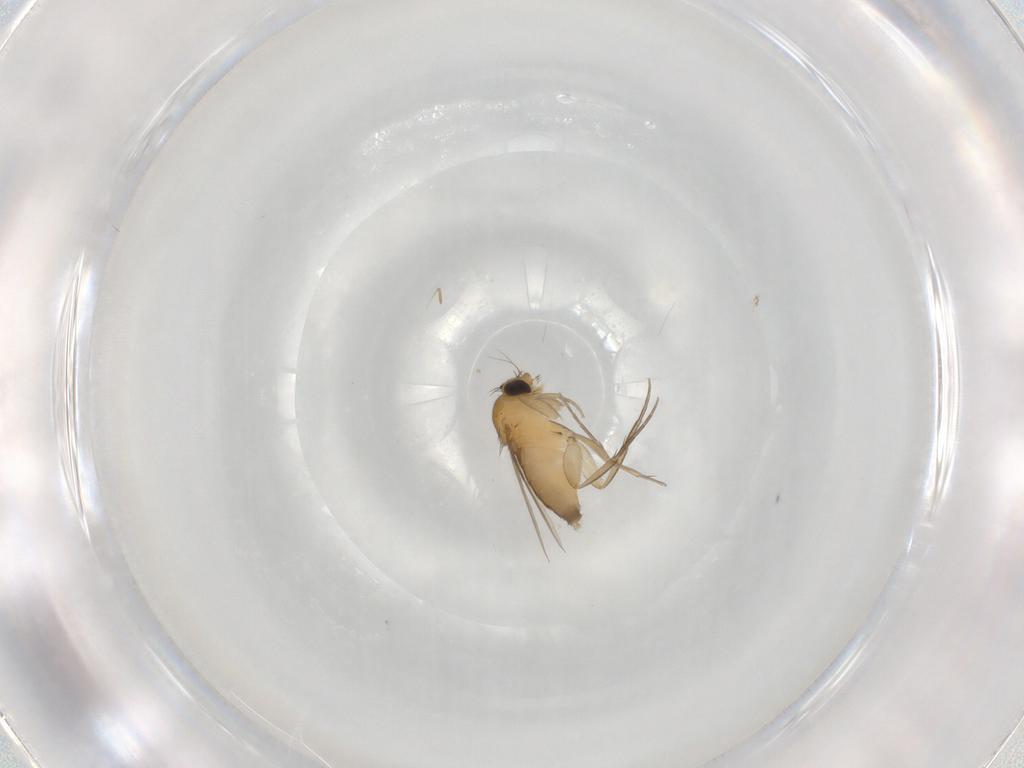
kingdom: Animalia
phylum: Arthropoda
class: Insecta
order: Diptera
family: Phoridae
